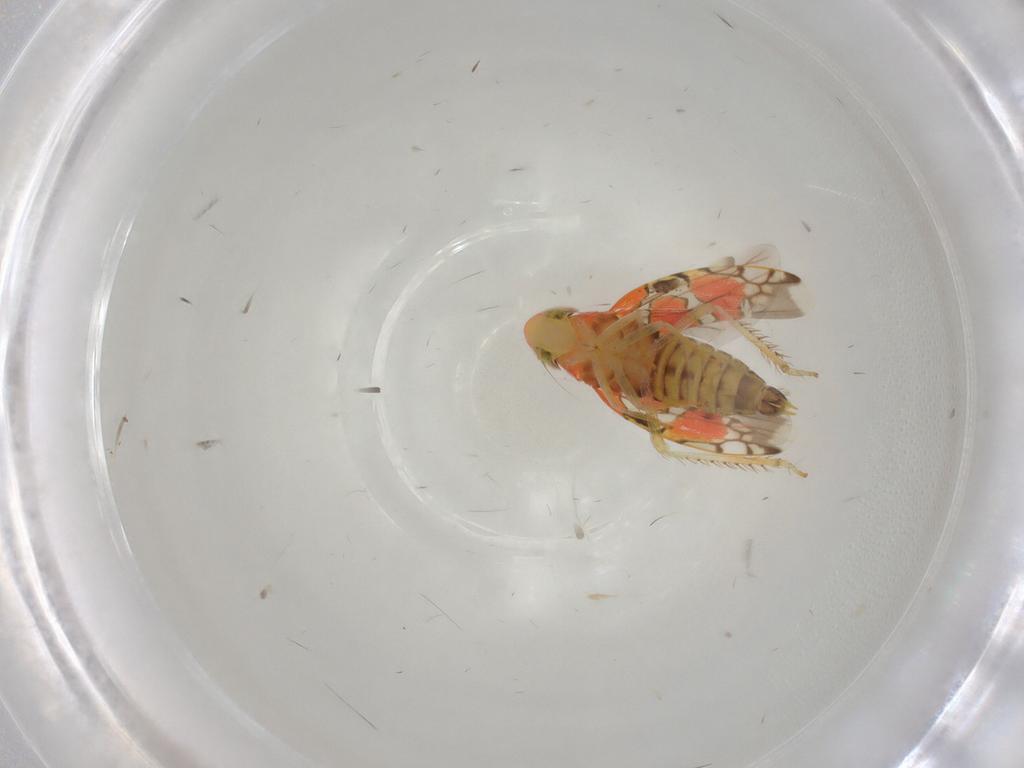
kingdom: Animalia
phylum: Arthropoda
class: Insecta
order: Hemiptera
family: Cicadellidae
